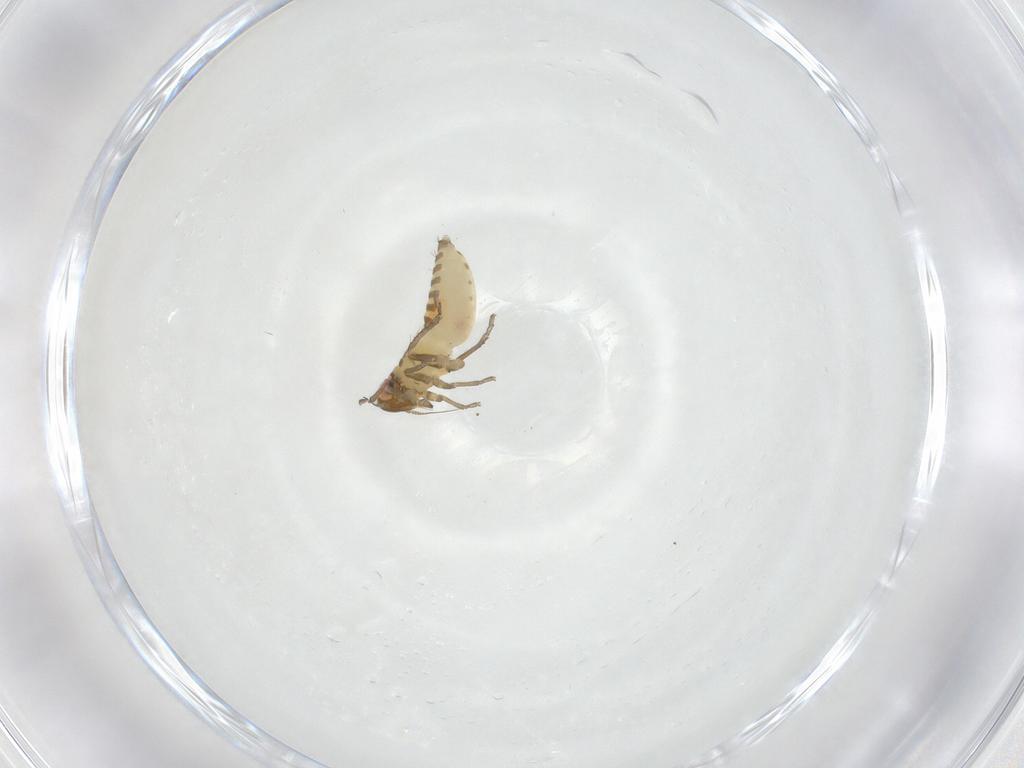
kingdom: Animalia
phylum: Arthropoda
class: Insecta
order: Hemiptera
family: Cicadellidae
